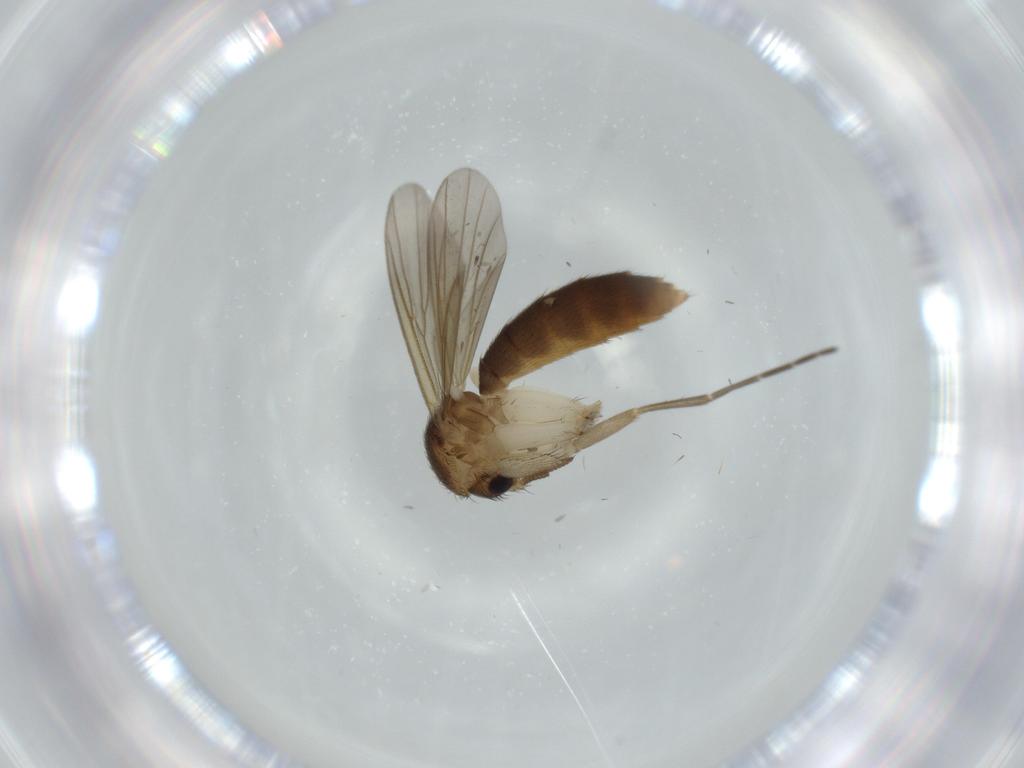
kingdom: Animalia
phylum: Arthropoda
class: Insecta
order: Diptera
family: Mycetophilidae
